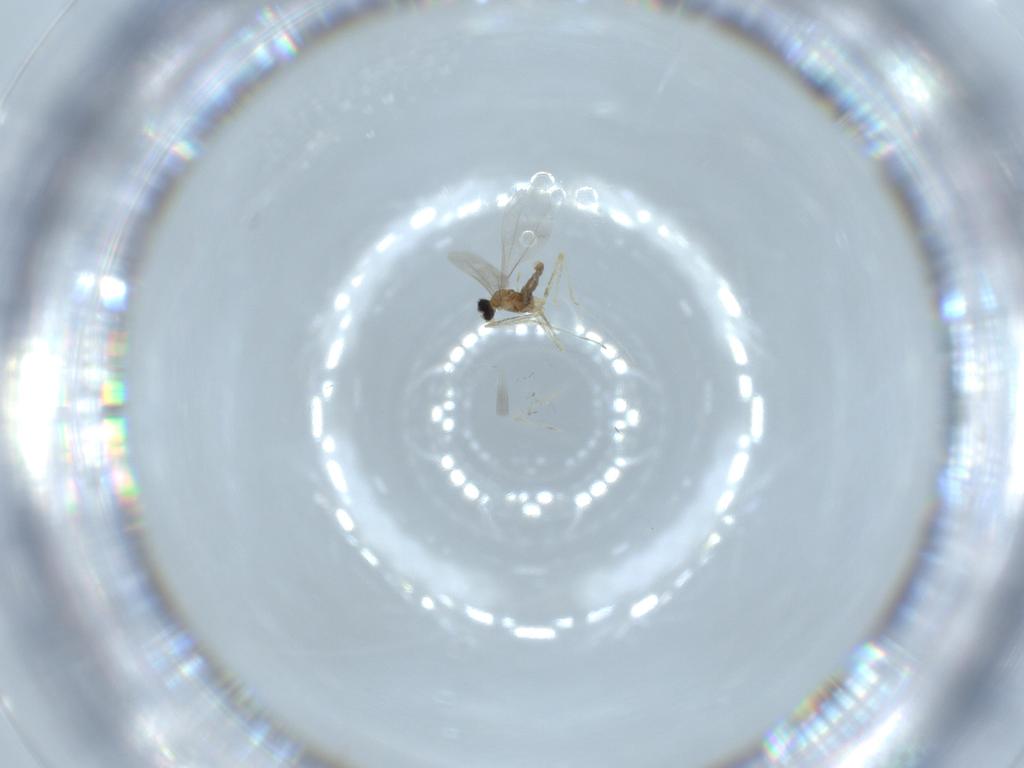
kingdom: Animalia
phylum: Arthropoda
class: Insecta
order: Diptera
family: Cecidomyiidae
